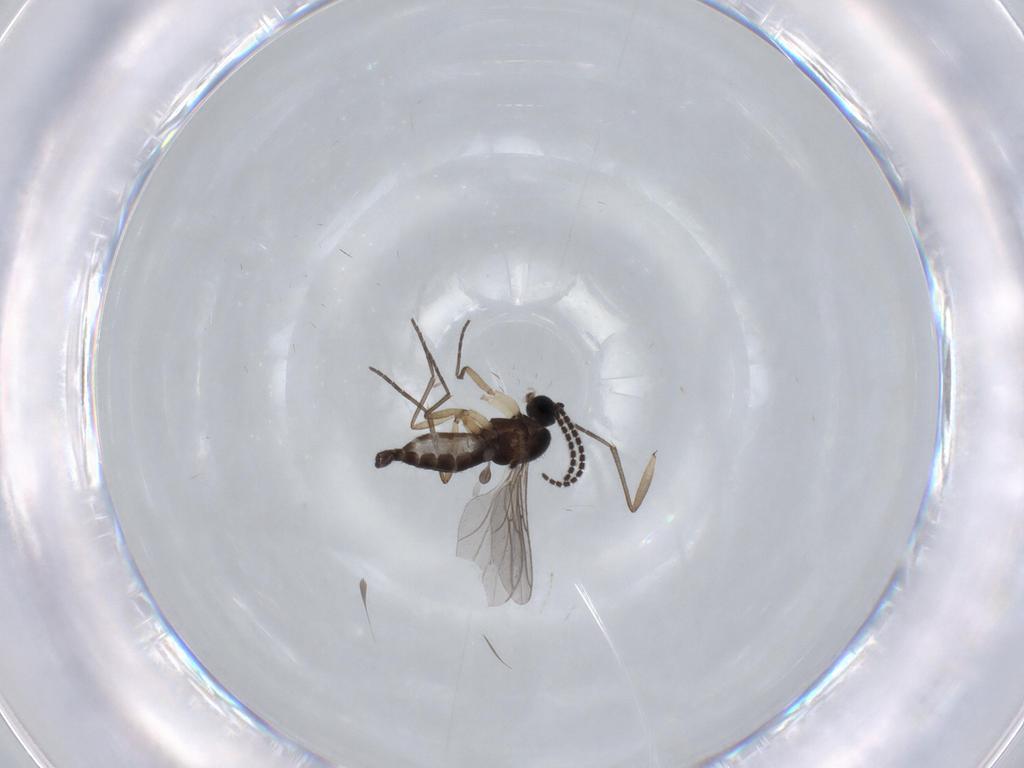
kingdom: Animalia
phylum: Arthropoda
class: Insecta
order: Diptera
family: Sciaridae
